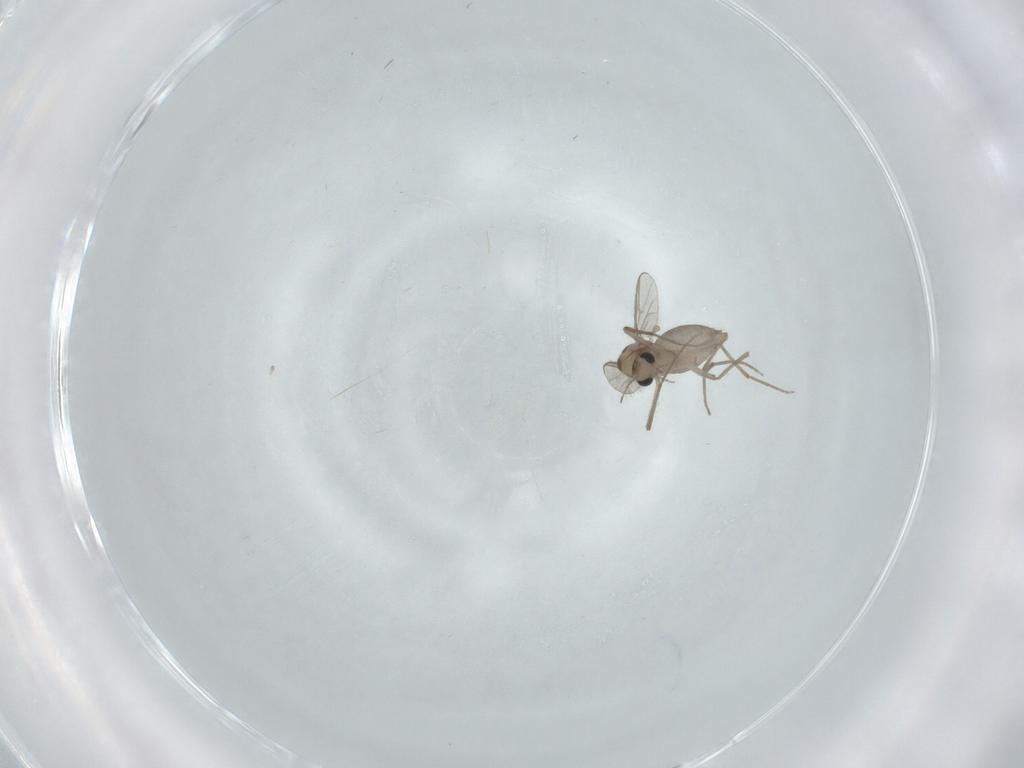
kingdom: Animalia
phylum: Arthropoda
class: Insecta
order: Diptera
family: Chironomidae
